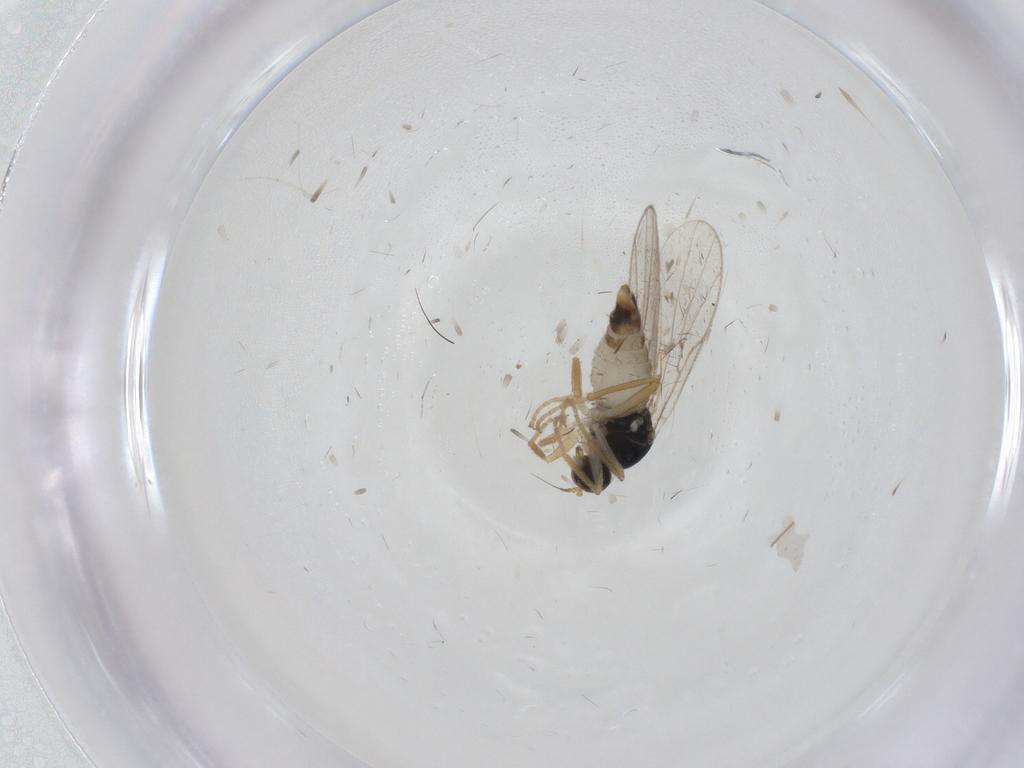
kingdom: Animalia
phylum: Arthropoda
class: Insecta
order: Diptera
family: Hybotidae
